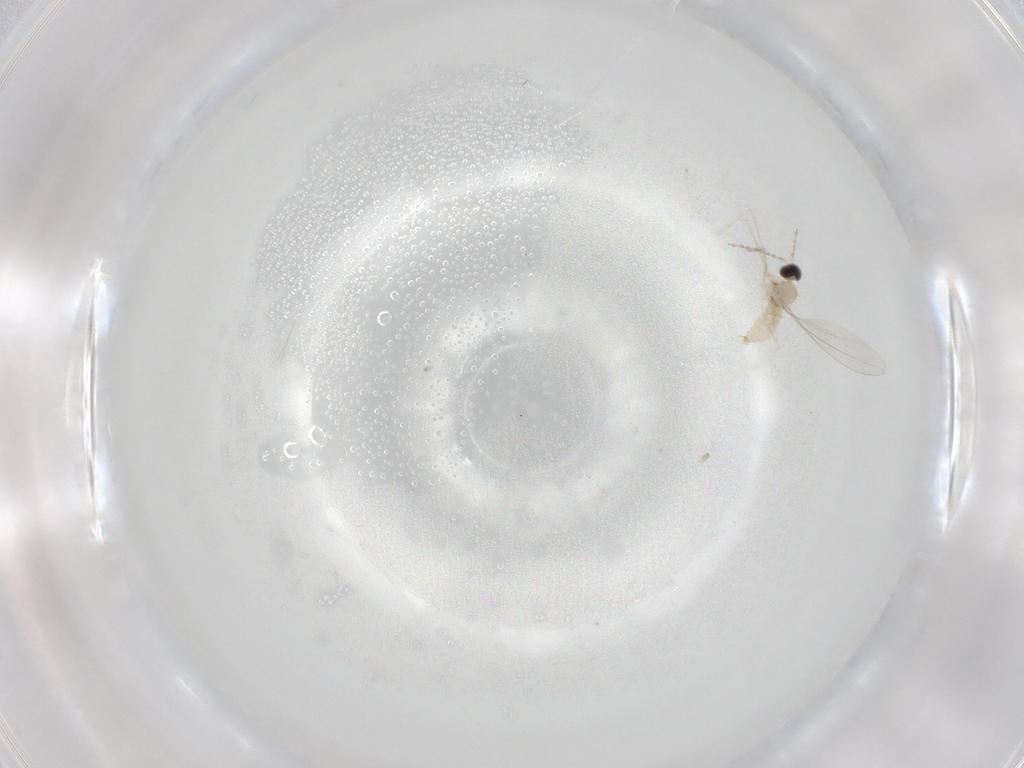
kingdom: Animalia
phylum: Arthropoda
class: Insecta
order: Diptera
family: Cecidomyiidae
